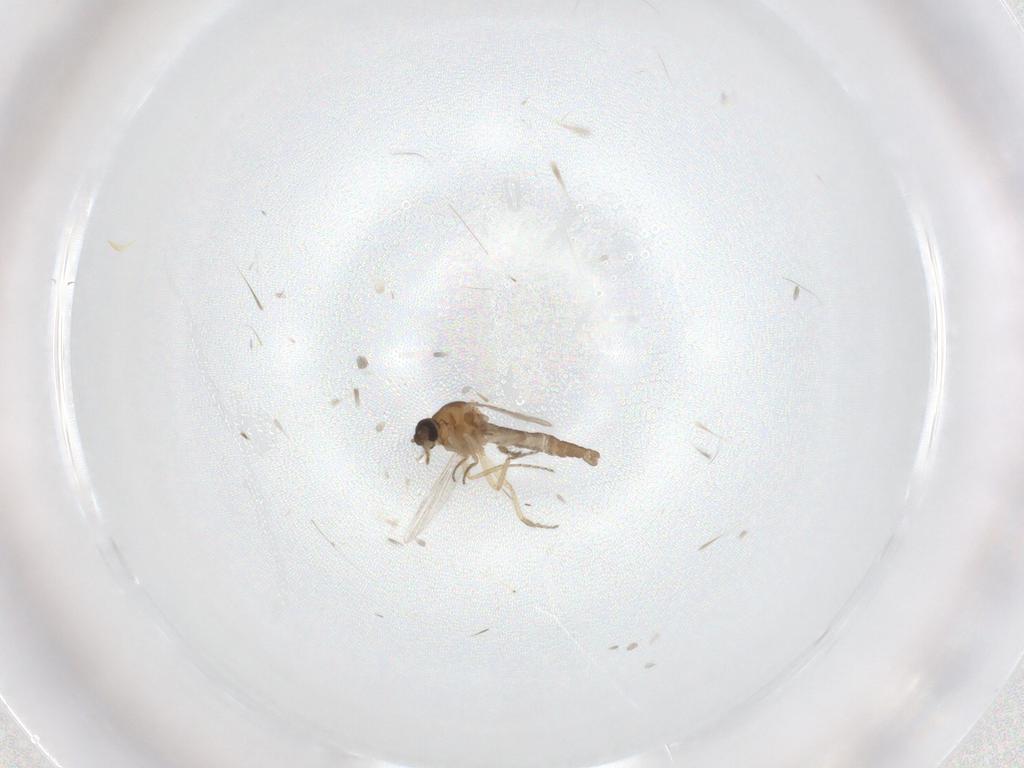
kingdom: Animalia
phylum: Arthropoda
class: Insecta
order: Diptera
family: Ceratopogonidae
